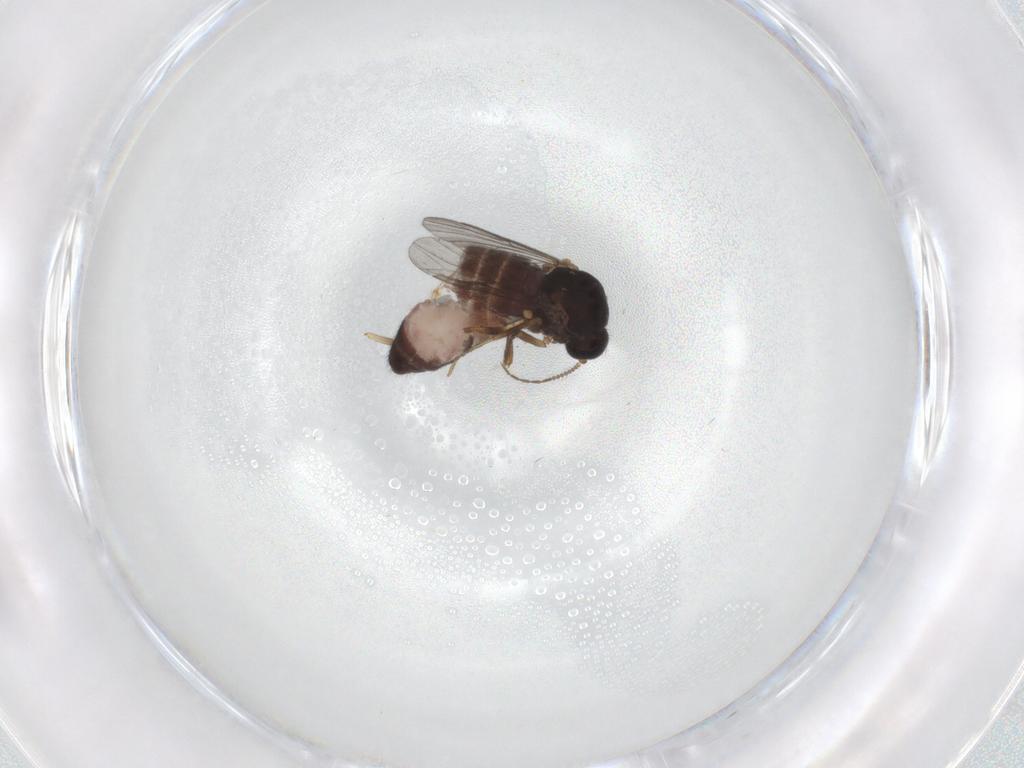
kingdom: Animalia
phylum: Arthropoda
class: Insecta
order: Diptera
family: Ceratopogonidae
